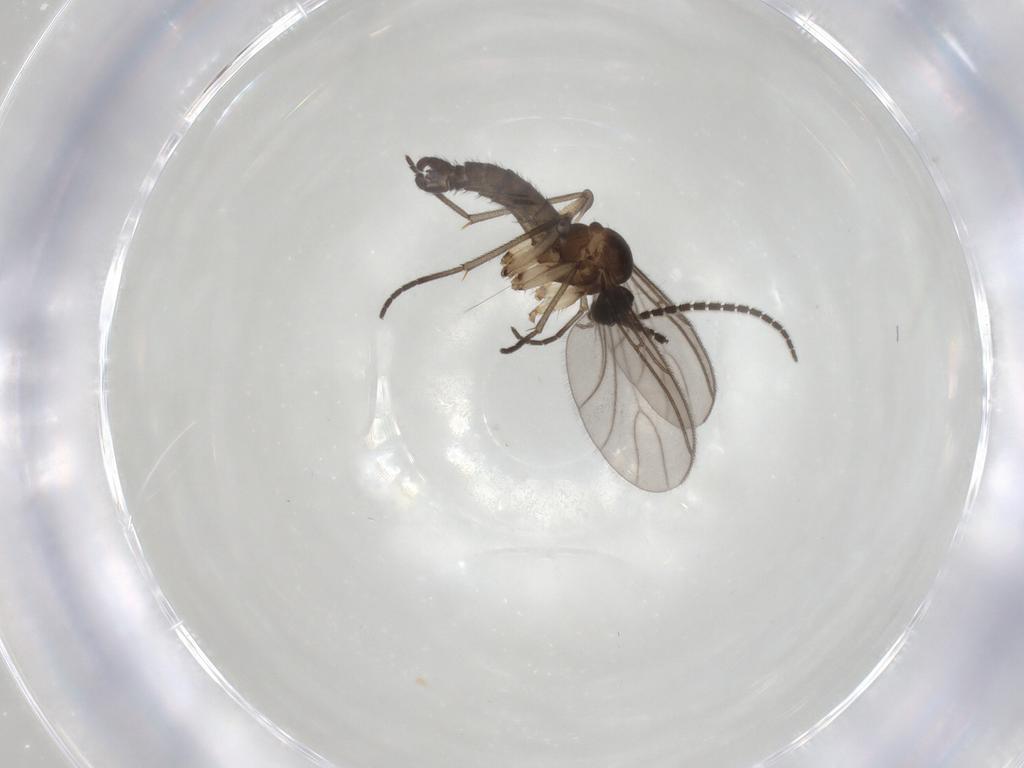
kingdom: Animalia
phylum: Arthropoda
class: Insecta
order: Diptera
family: Sciaridae
